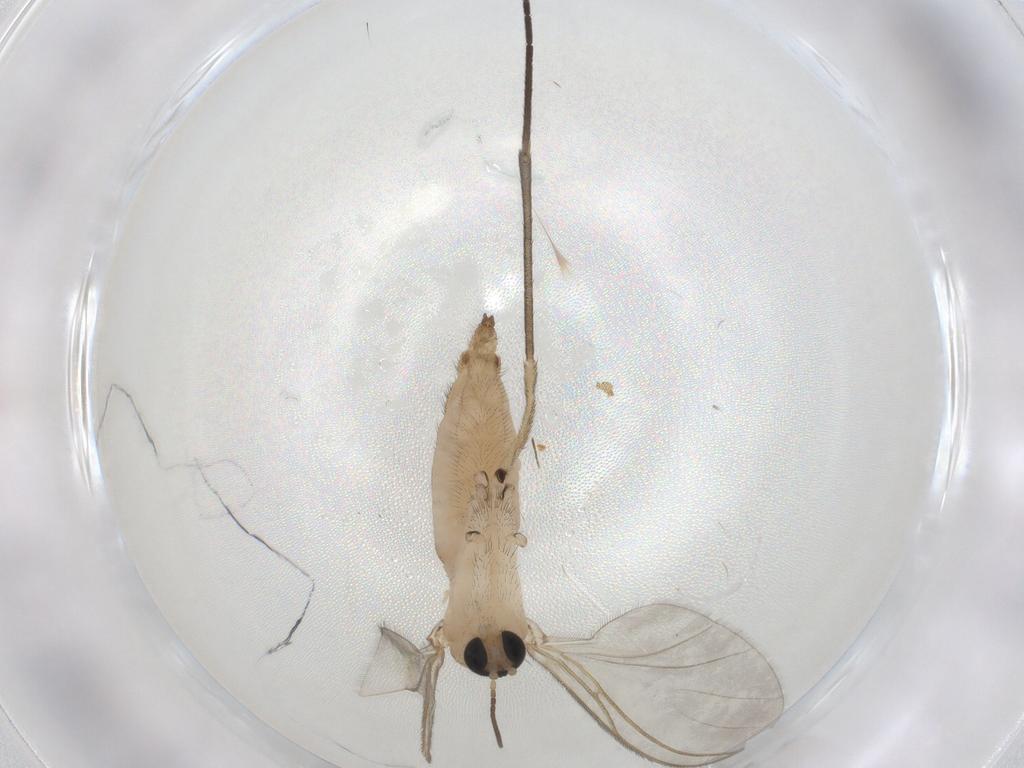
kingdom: Animalia
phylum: Arthropoda
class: Insecta
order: Diptera
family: Sciaridae
